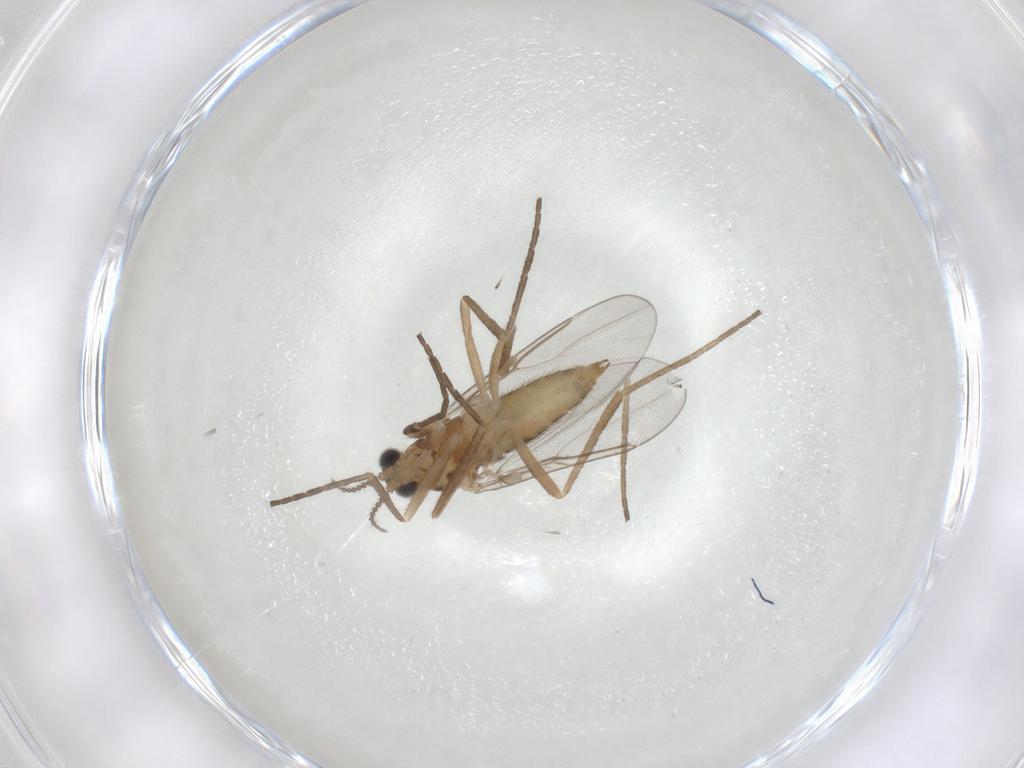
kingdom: Animalia
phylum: Arthropoda
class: Insecta
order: Diptera
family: Cecidomyiidae
